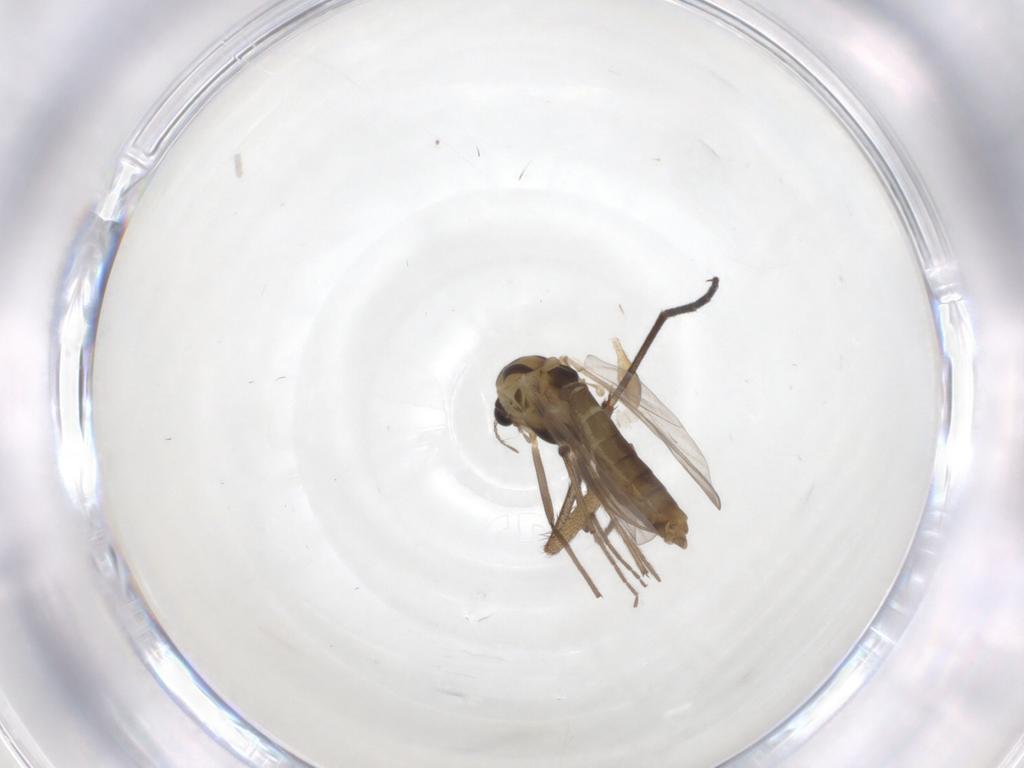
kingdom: Animalia
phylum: Arthropoda
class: Insecta
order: Diptera
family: Chironomidae
